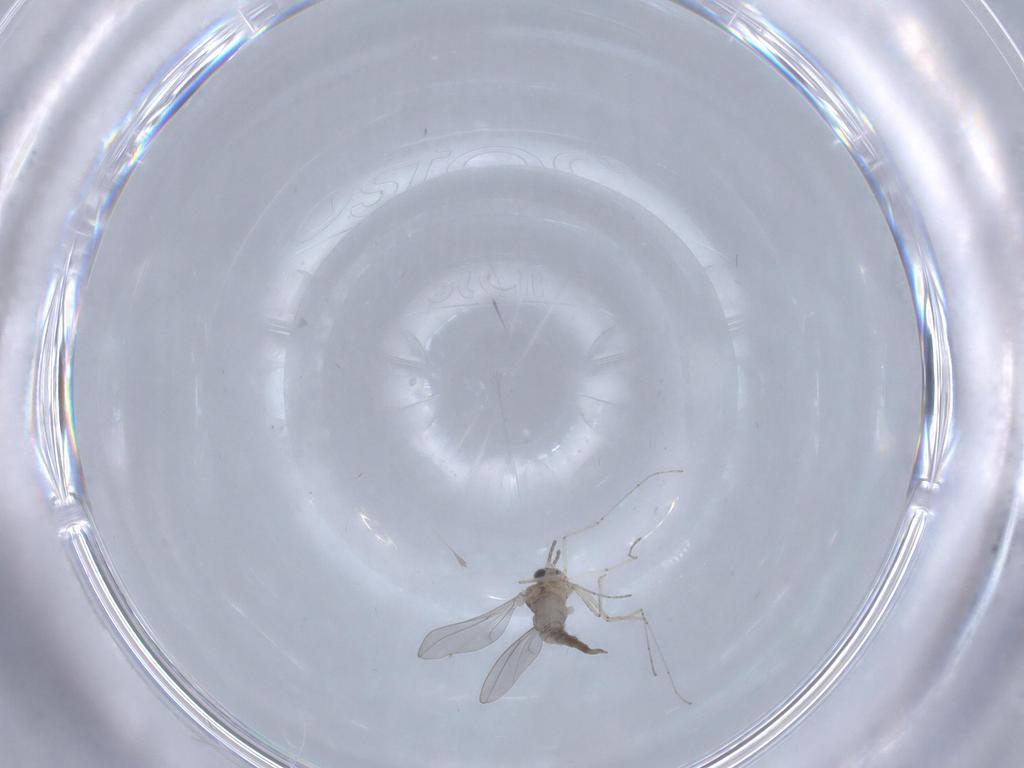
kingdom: Animalia
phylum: Arthropoda
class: Insecta
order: Diptera
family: Cecidomyiidae
